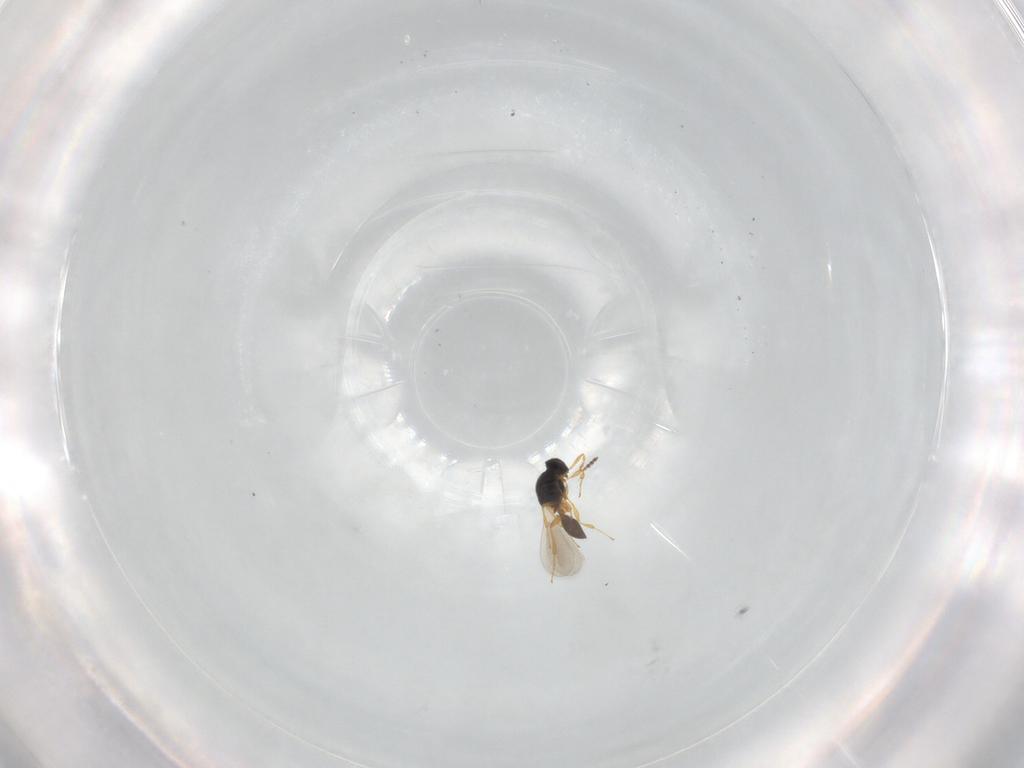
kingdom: Animalia
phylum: Arthropoda
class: Insecta
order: Hymenoptera
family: Platygastridae
